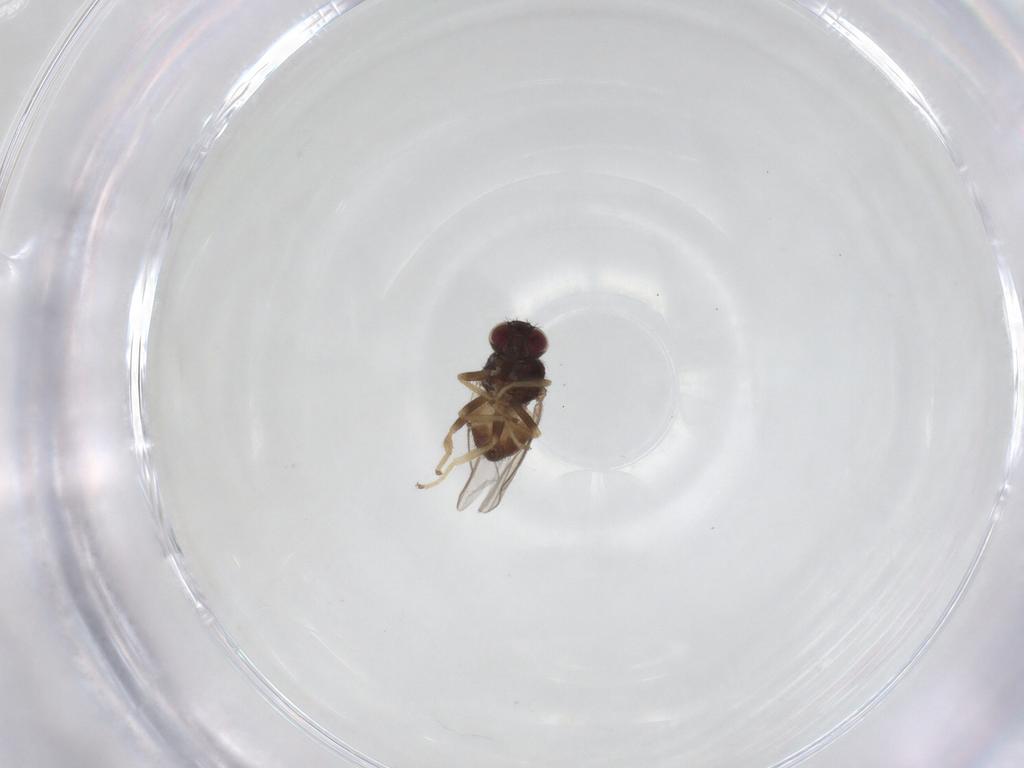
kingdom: Animalia
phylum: Arthropoda
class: Insecta
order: Diptera
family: Chloropidae
